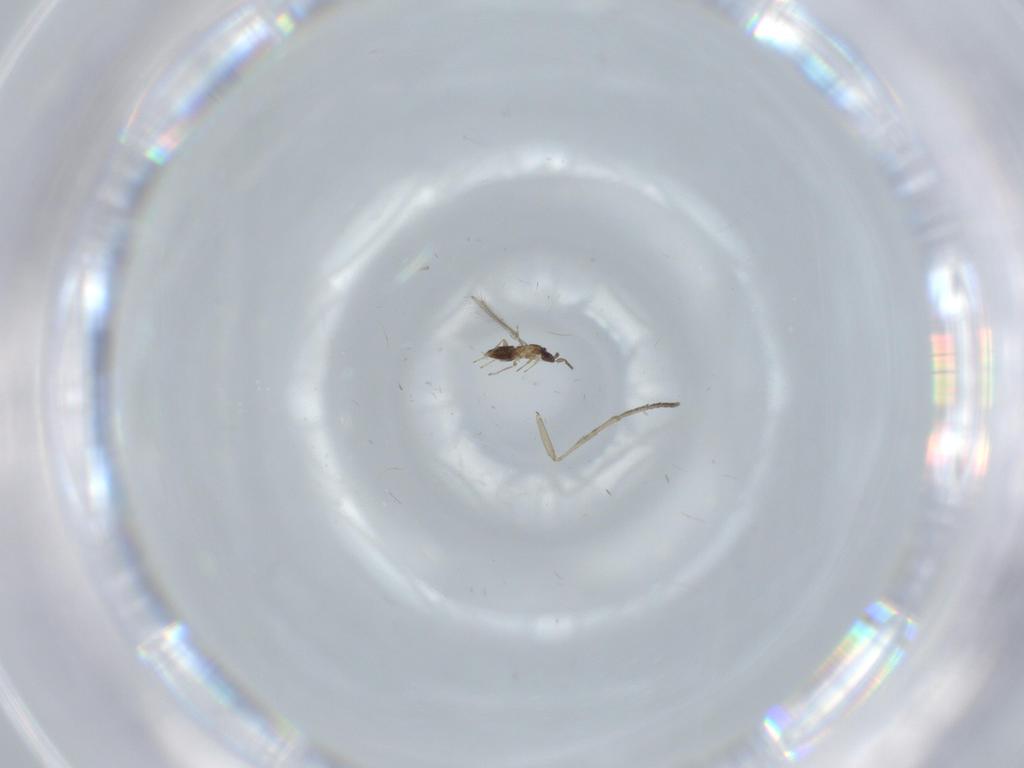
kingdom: Animalia
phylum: Arthropoda
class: Insecta
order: Hymenoptera
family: Mymaridae
